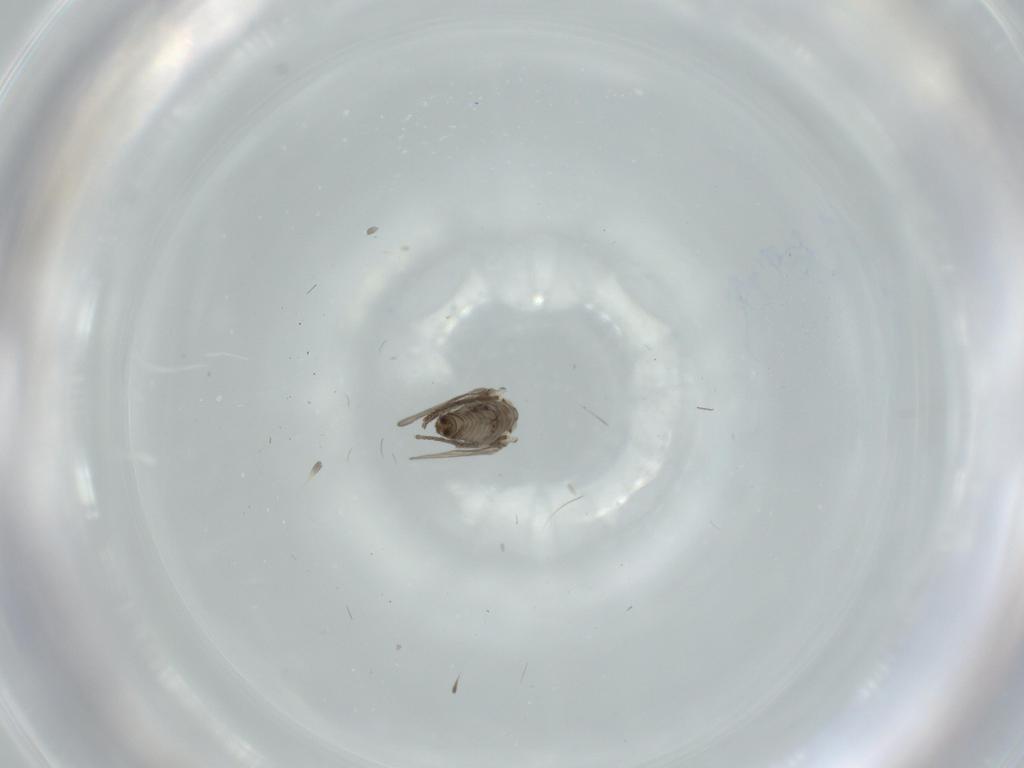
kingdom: Animalia
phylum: Arthropoda
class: Insecta
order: Diptera
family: Psychodidae
